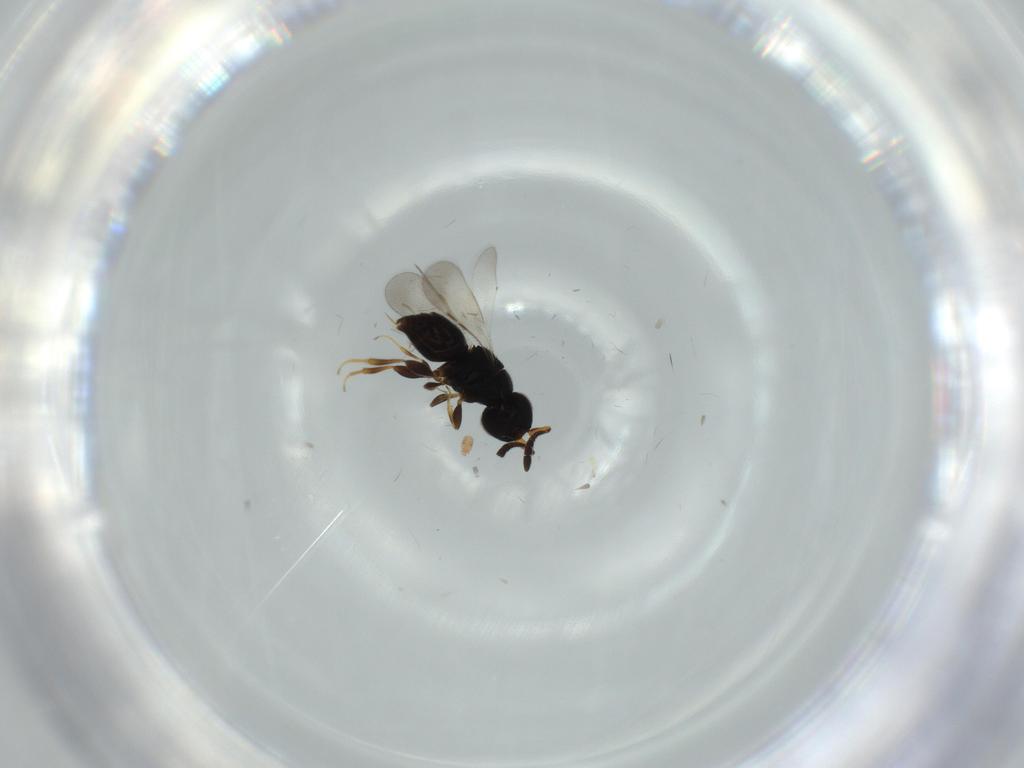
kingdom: Animalia
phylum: Arthropoda
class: Insecta
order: Hymenoptera
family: Ceraphronidae
